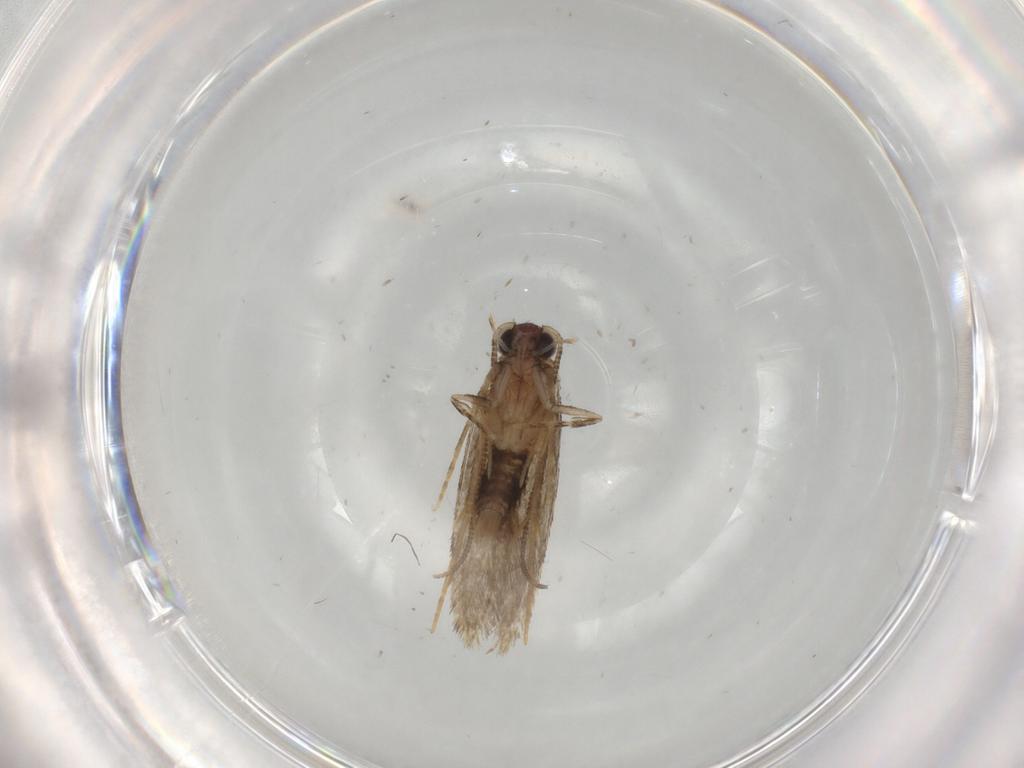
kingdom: Animalia
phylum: Arthropoda
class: Insecta
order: Lepidoptera
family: Tineidae
